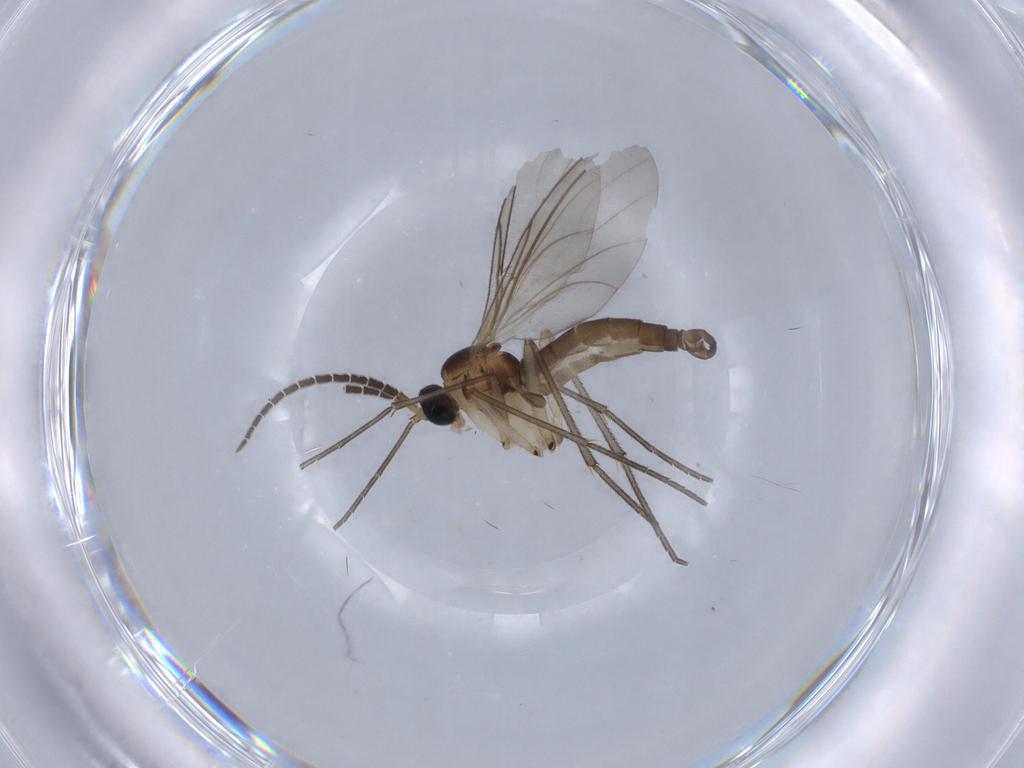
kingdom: Animalia
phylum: Arthropoda
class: Insecta
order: Diptera
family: Sciaridae
